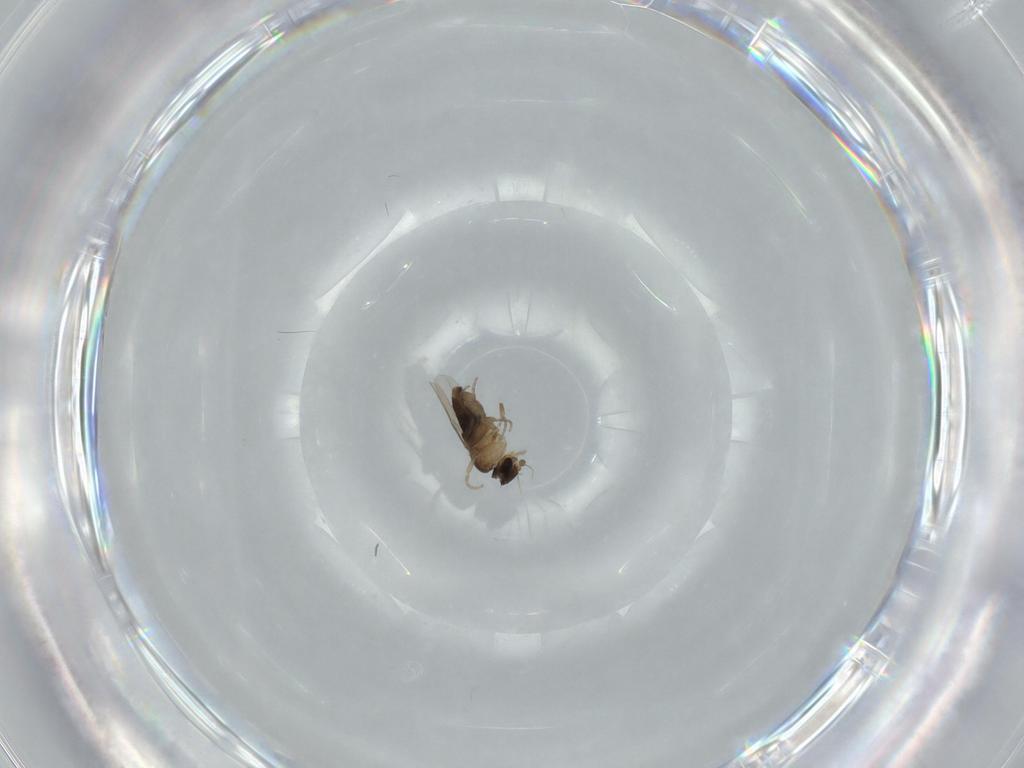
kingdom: Animalia
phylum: Arthropoda
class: Insecta
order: Diptera
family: Phoridae
